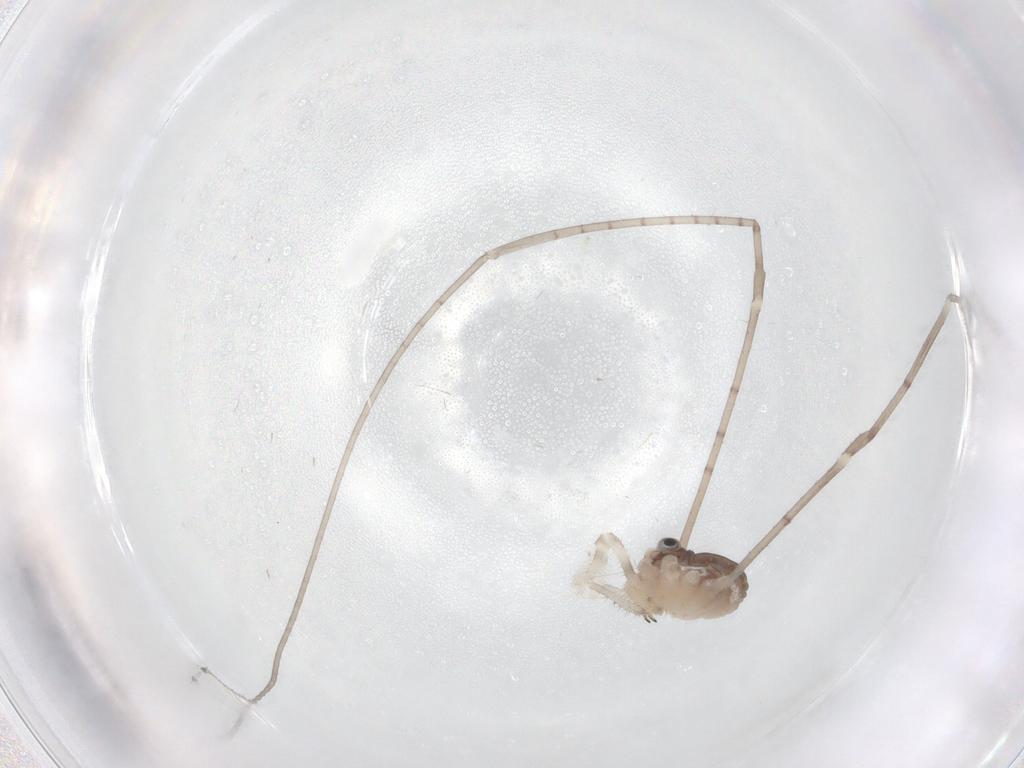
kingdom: Animalia
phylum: Arthropoda
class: Arachnida
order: Opiliones
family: Sclerosomatidae
